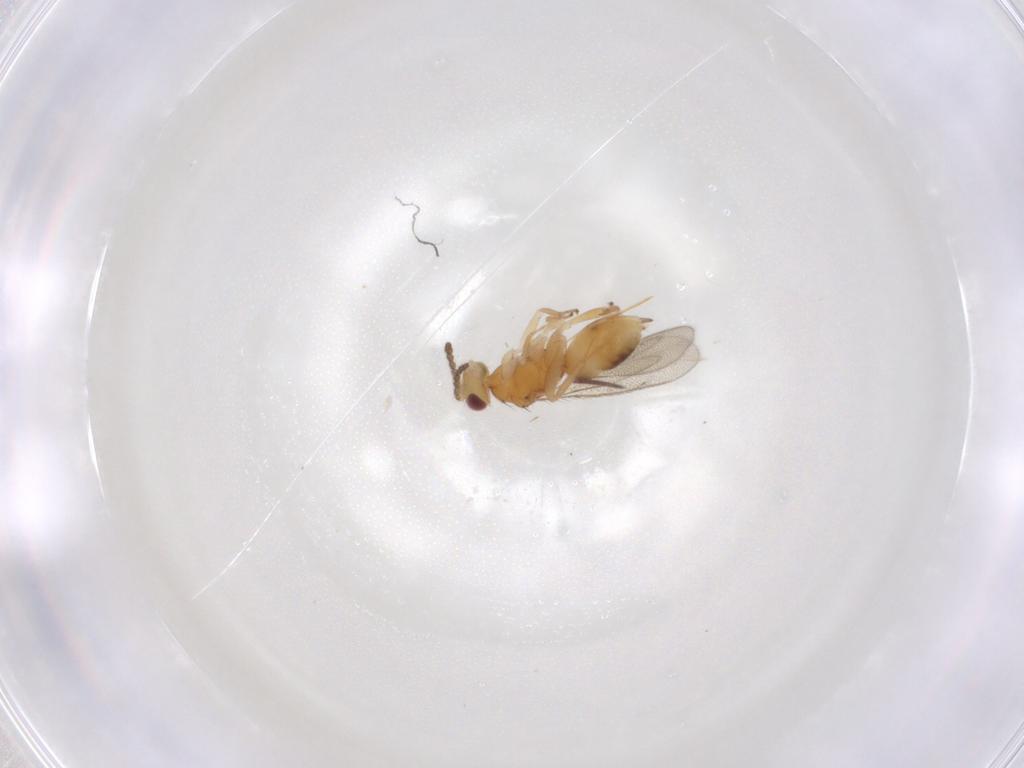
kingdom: Animalia
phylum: Arthropoda
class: Insecta
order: Hymenoptera
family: Eulophidae
